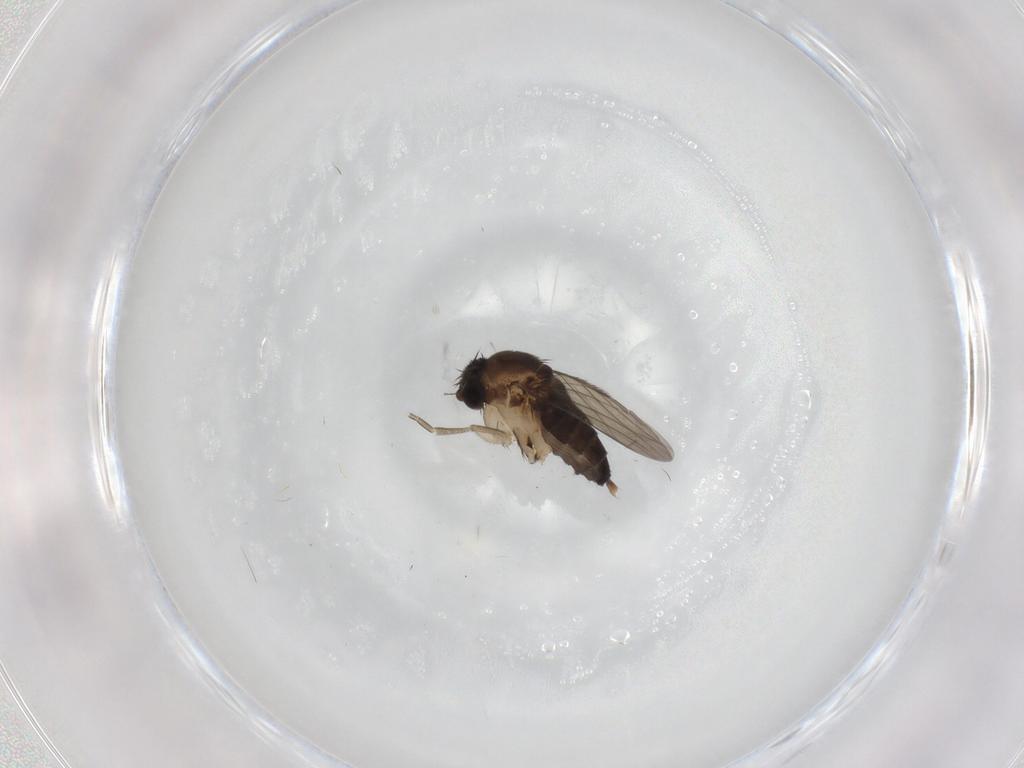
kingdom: Animalia
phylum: Arthropoda
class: Insecta
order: Diptera
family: Phoridae
